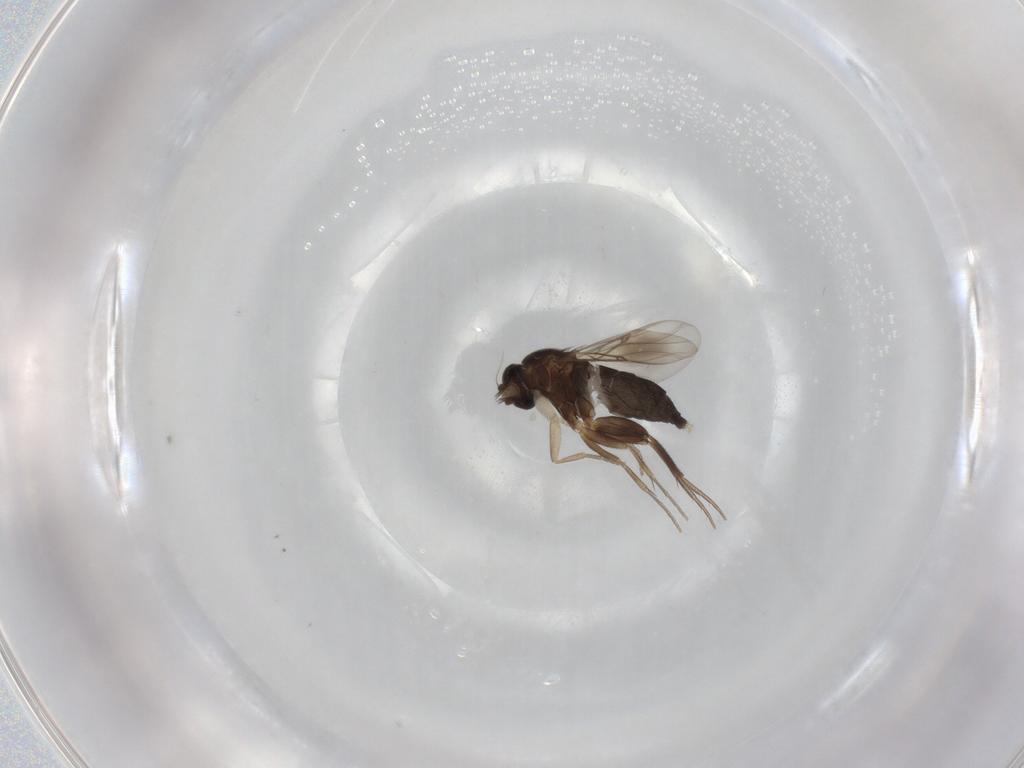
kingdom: Animalia
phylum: Arthropoda
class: Insecta
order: Diptera
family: Phoridae
